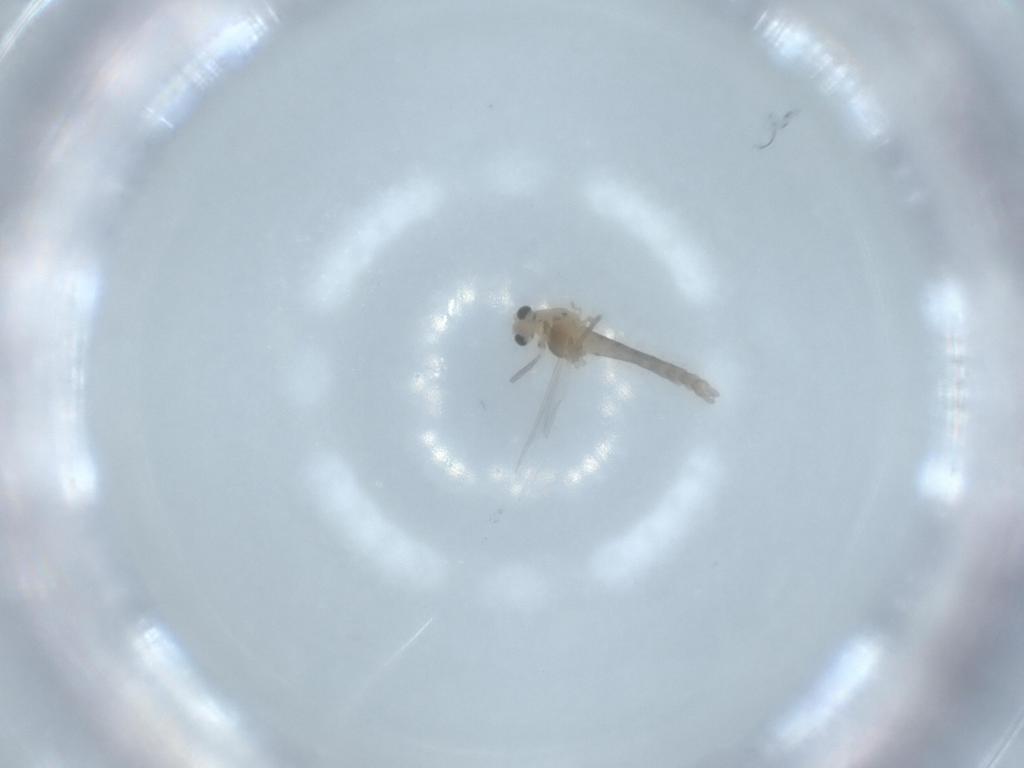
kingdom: Animalia
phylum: Arthropoda
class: Insecta
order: Diptera
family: Chironomidae
